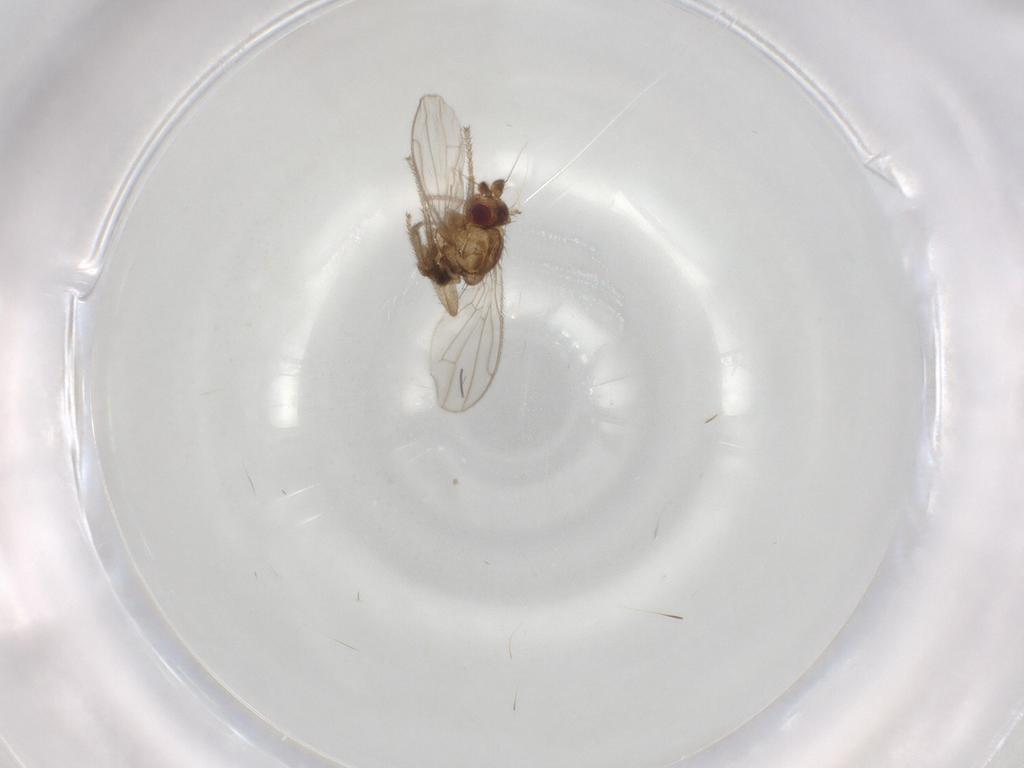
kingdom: Animalia
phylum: Arthropoda
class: Insecta
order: Diptera
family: Sphaeroceridae
